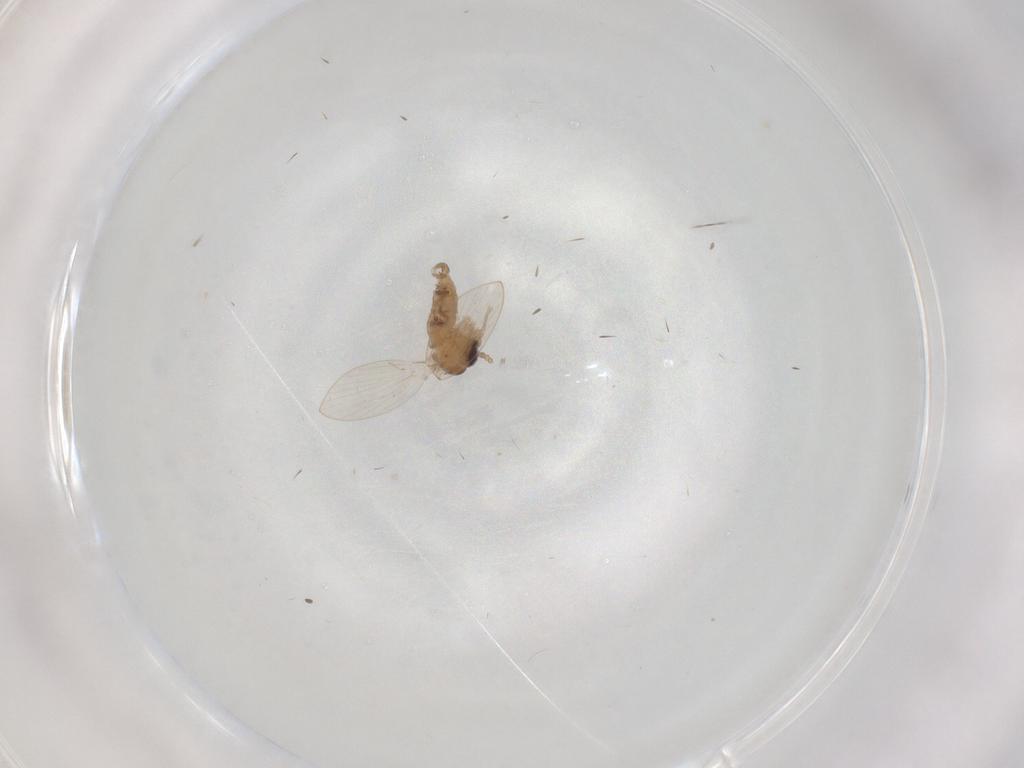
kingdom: Animalia
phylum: Arthropoda
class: Insecta
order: Diptera
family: Psychodidae
